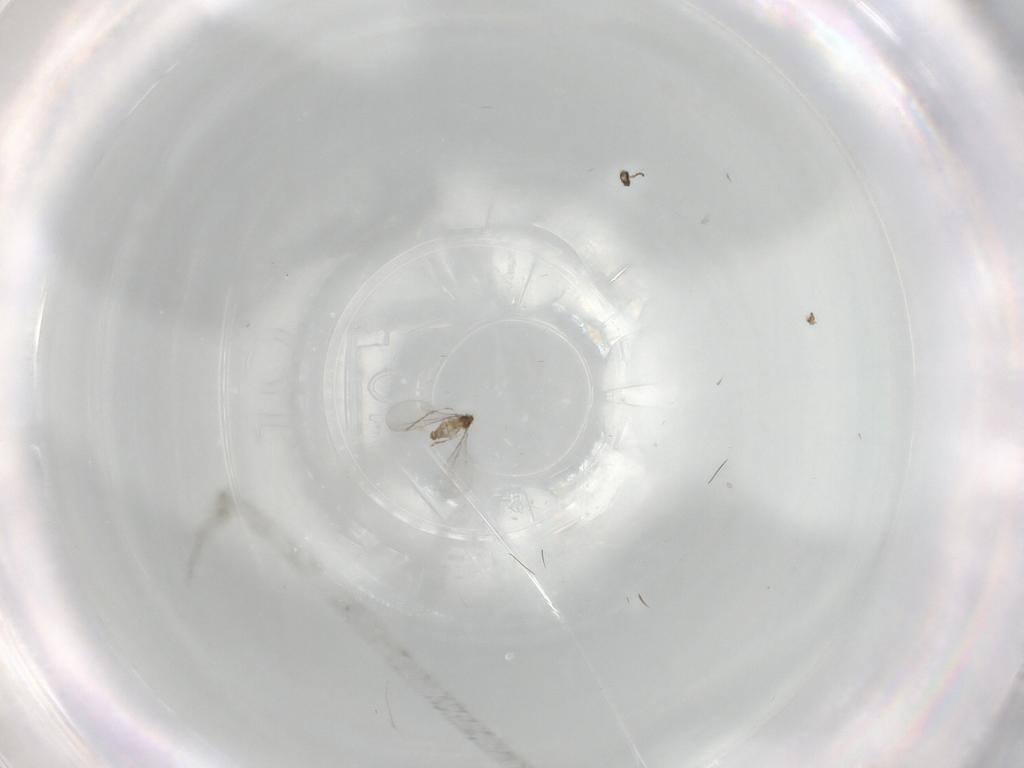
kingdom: Animalia
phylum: Arthropoda
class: Insecta
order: Diptera
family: Cecidomyiidae
